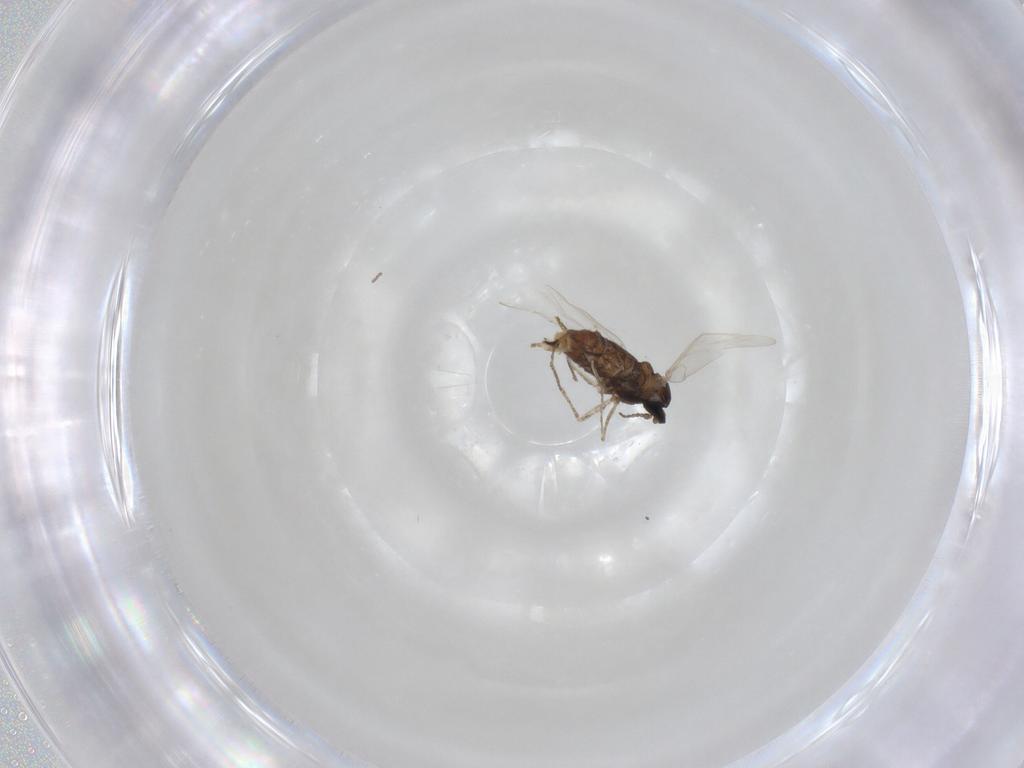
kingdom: Animalia
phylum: Arthropoda
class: Insecta
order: Diptera
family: Cecidomyiidae
